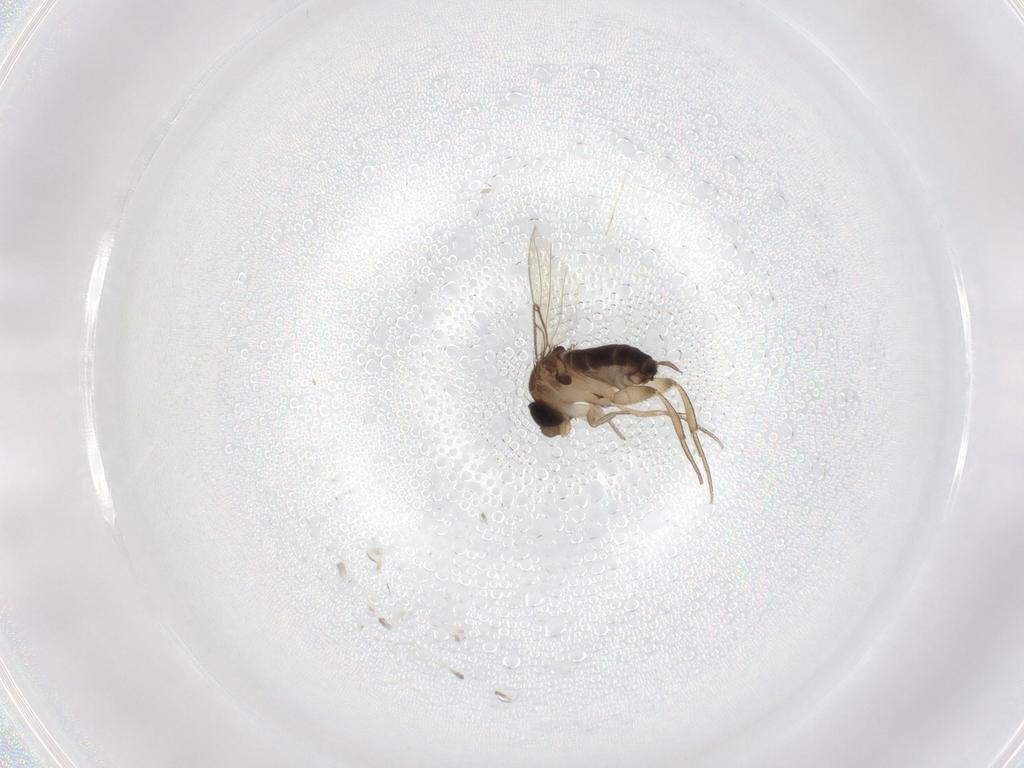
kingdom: Animalia
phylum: Arthropoda
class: Insecta
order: Diptera
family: Phoridae
